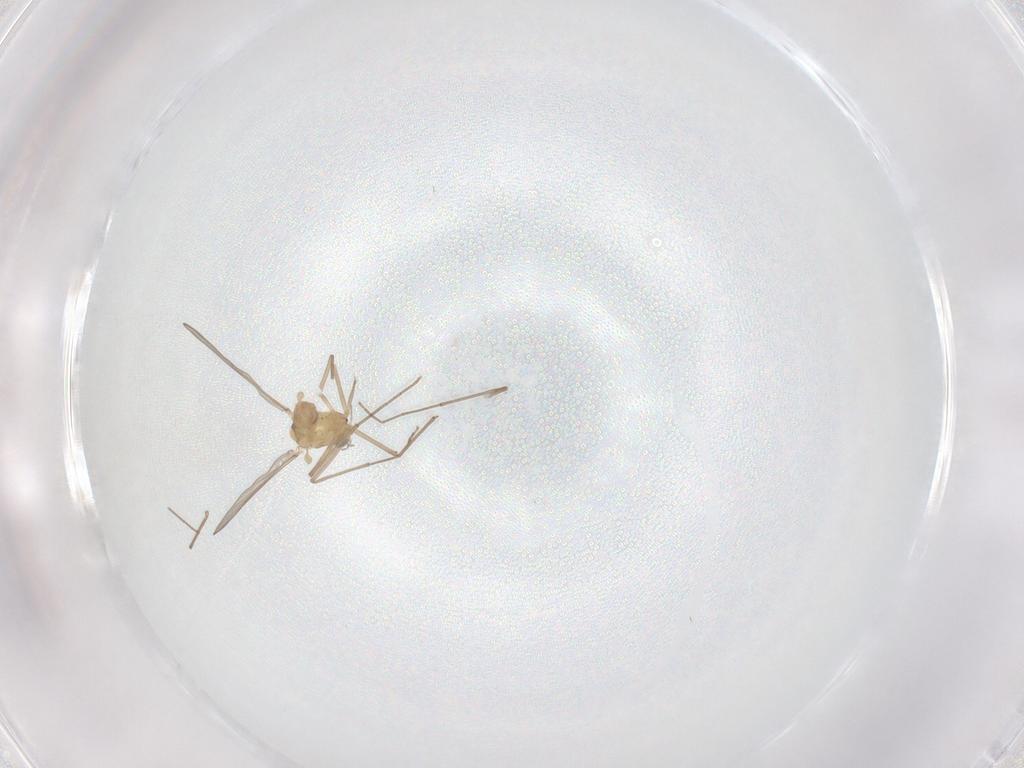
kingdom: Animalia
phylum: Arthropoda
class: Insecta
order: Diptera
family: Chironomidae
